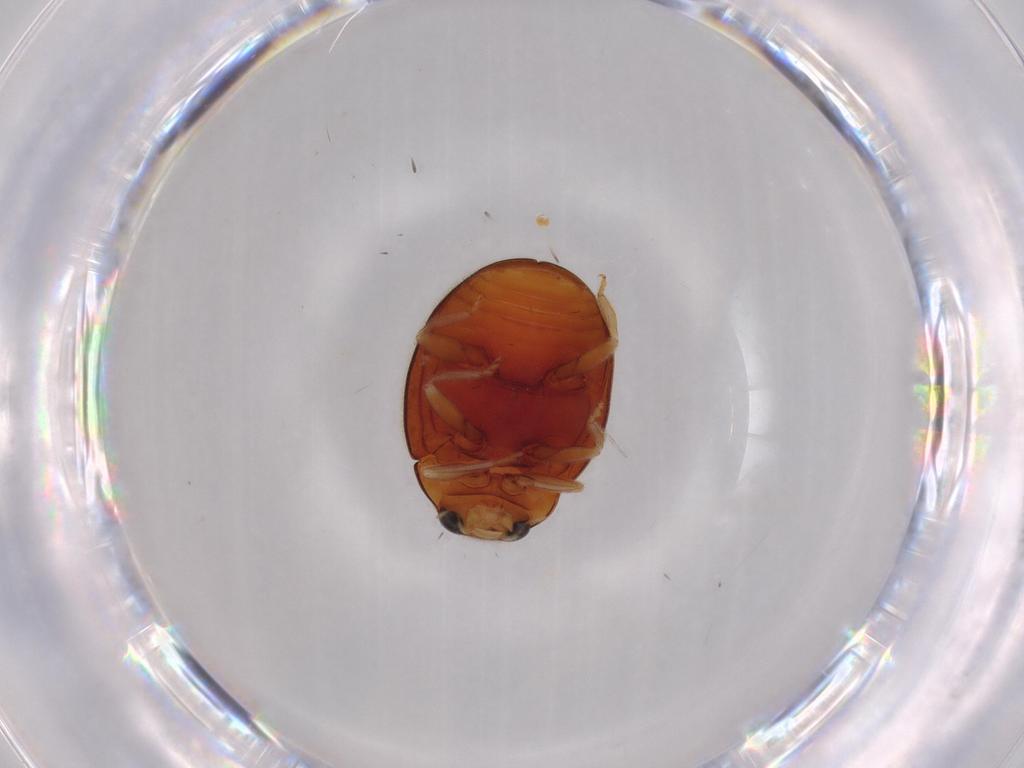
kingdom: Animalia
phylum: Arthropoda
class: Insecta
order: Coleoptera
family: Coccinellidae
